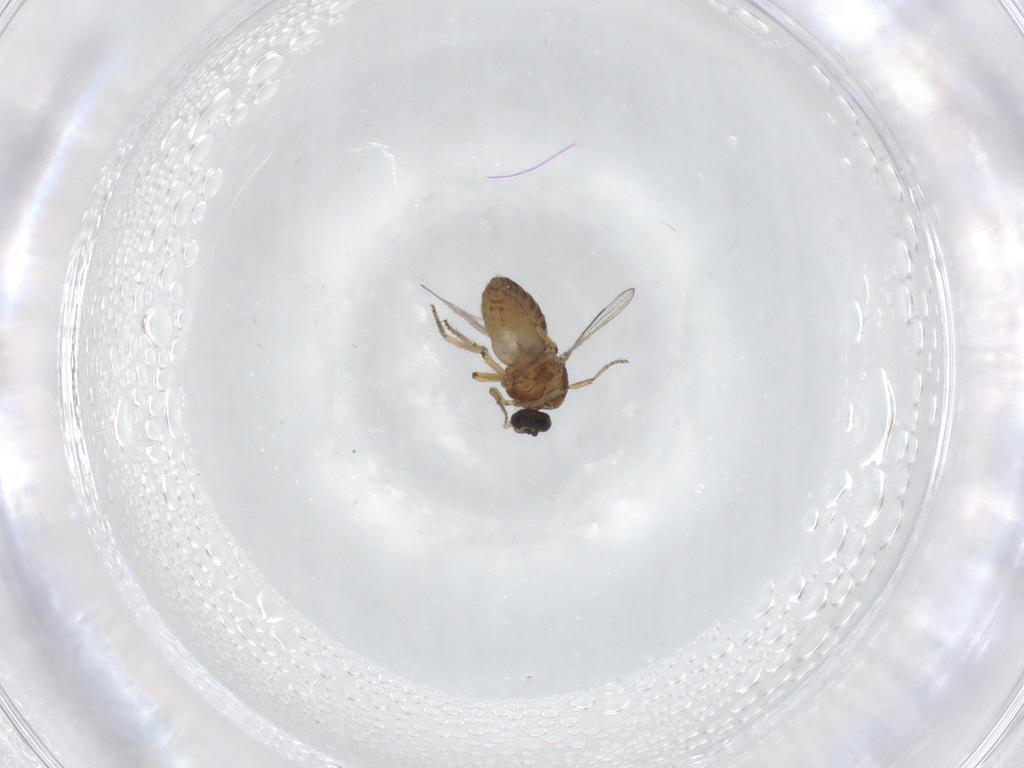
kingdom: Animalia
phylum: Arthropoda
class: Insecta
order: Diptera
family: Ceratopogonidae
